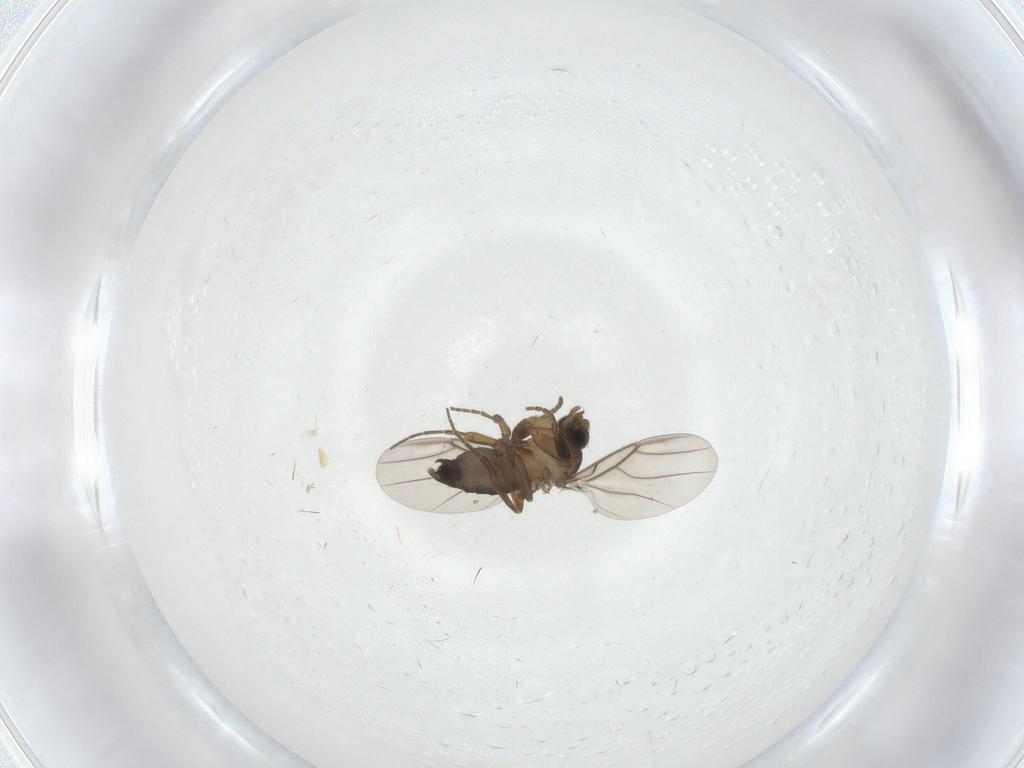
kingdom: Animalia
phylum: Arthropoda
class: Insecta
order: Diptera
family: Phoridae
